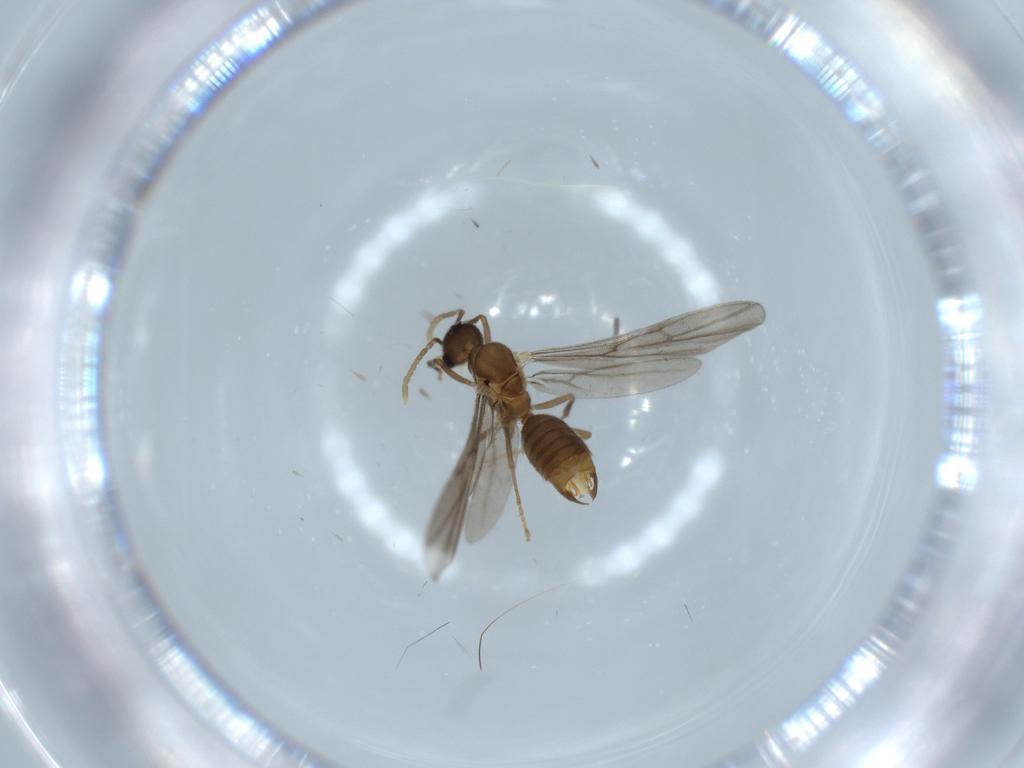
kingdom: Animalia
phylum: Arthropoda
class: Insecta
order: Hymenoptera
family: Formicidae
